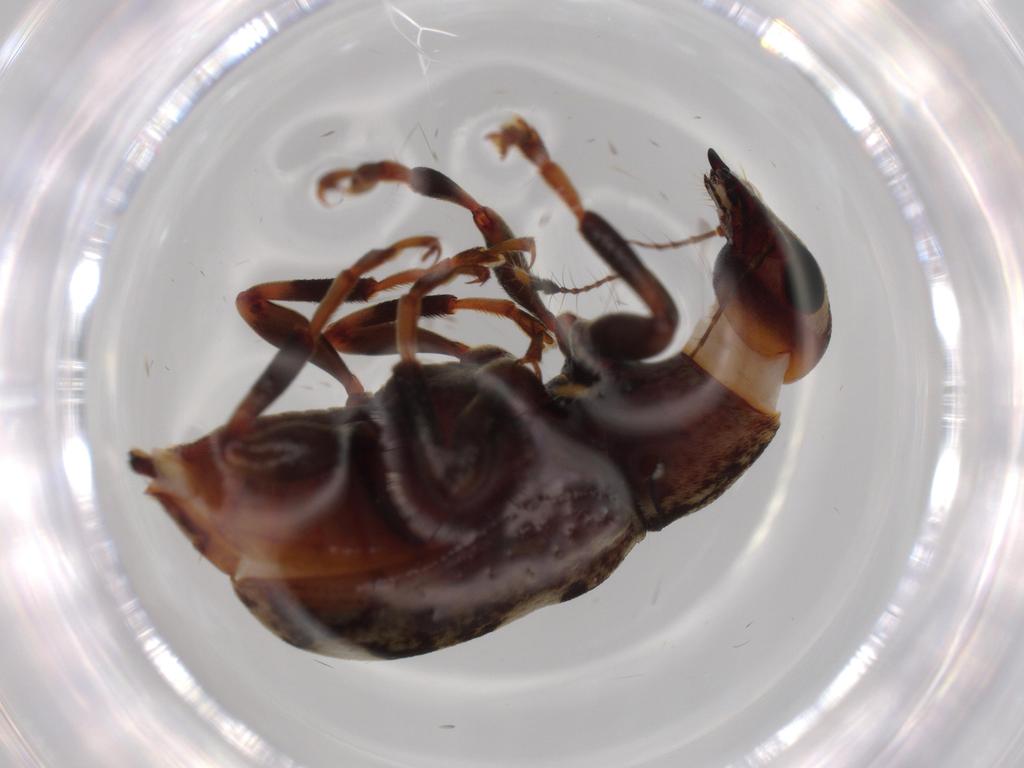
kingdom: Animalia
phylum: Arthropoda
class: Insecta
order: Coleoptera
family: Anthribidae
